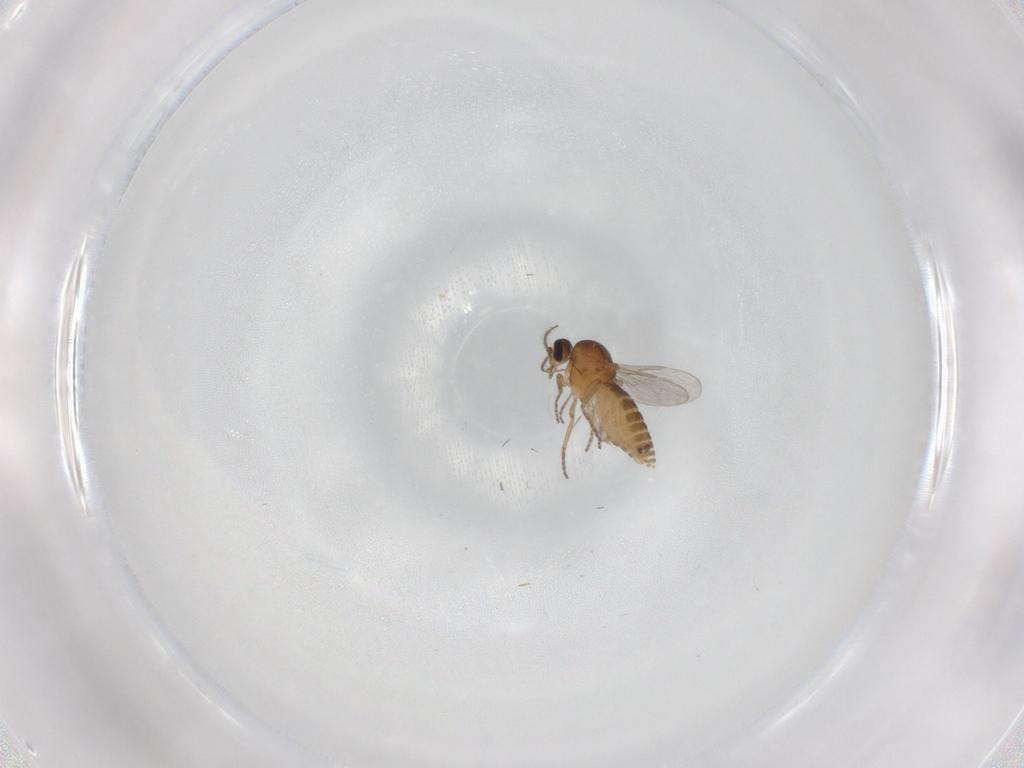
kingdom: Animalia
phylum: Arthropoda
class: Insecta
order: Diptera
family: Ceratopogonidae
